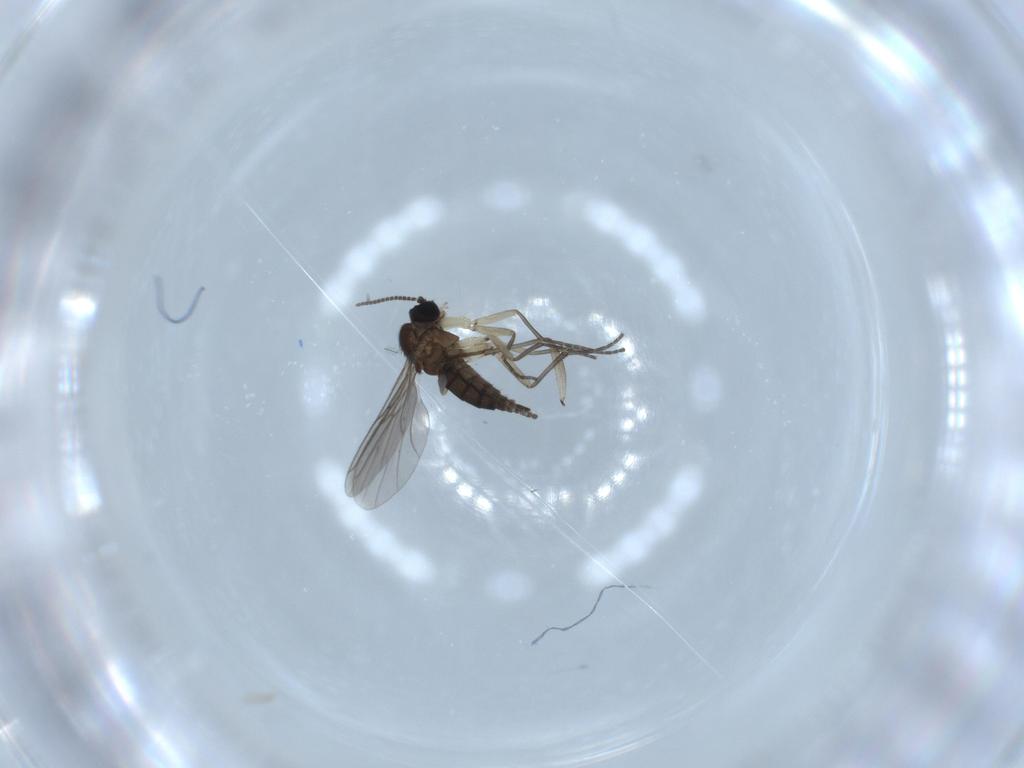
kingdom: Animalia
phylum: Arthropoda
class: Insecta
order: Diptera
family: Sciaridae
